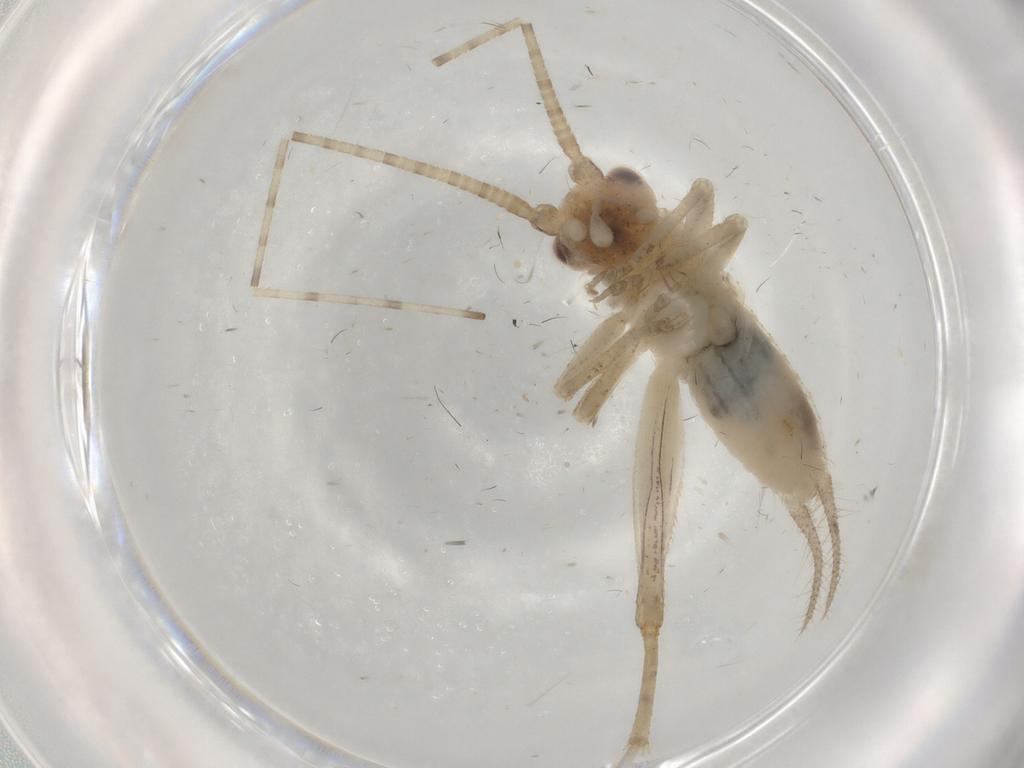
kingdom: Animalia
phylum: Arthropoda
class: Insecta
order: Orthoptera
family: Gryllidae
